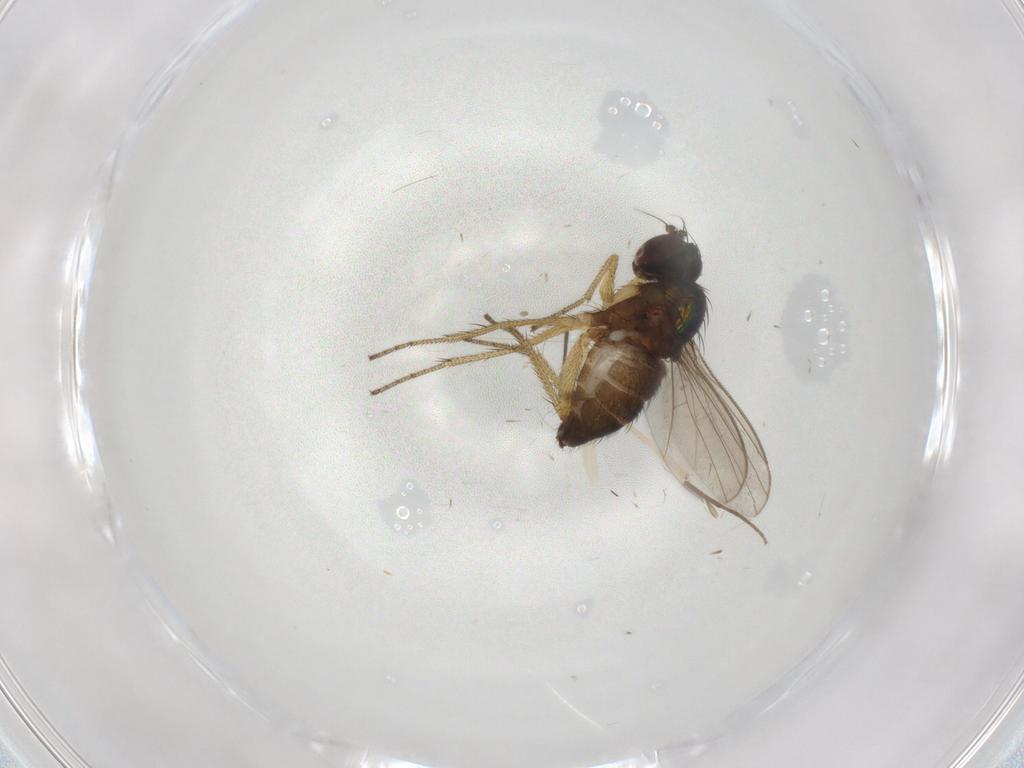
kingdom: Animalia
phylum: Arthropoda
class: Insecta
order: Diptera
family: Chironomidae
